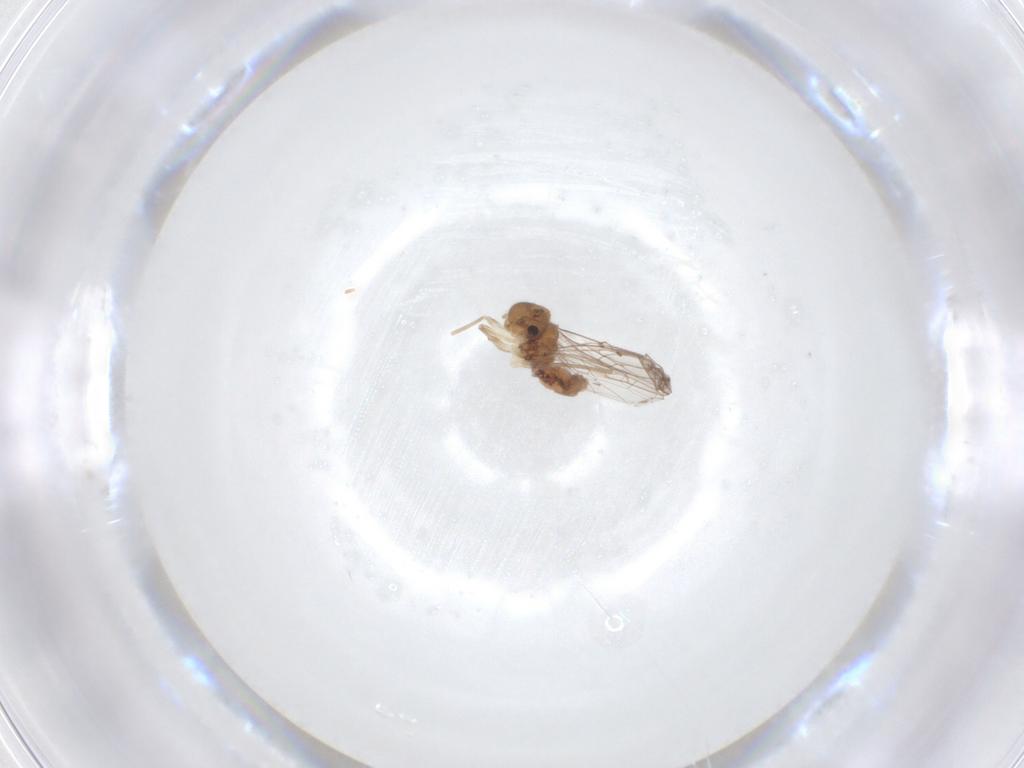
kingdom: Animalia
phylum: Arthropoda
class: Insecta
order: Psocodea
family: Ectopsocidae
